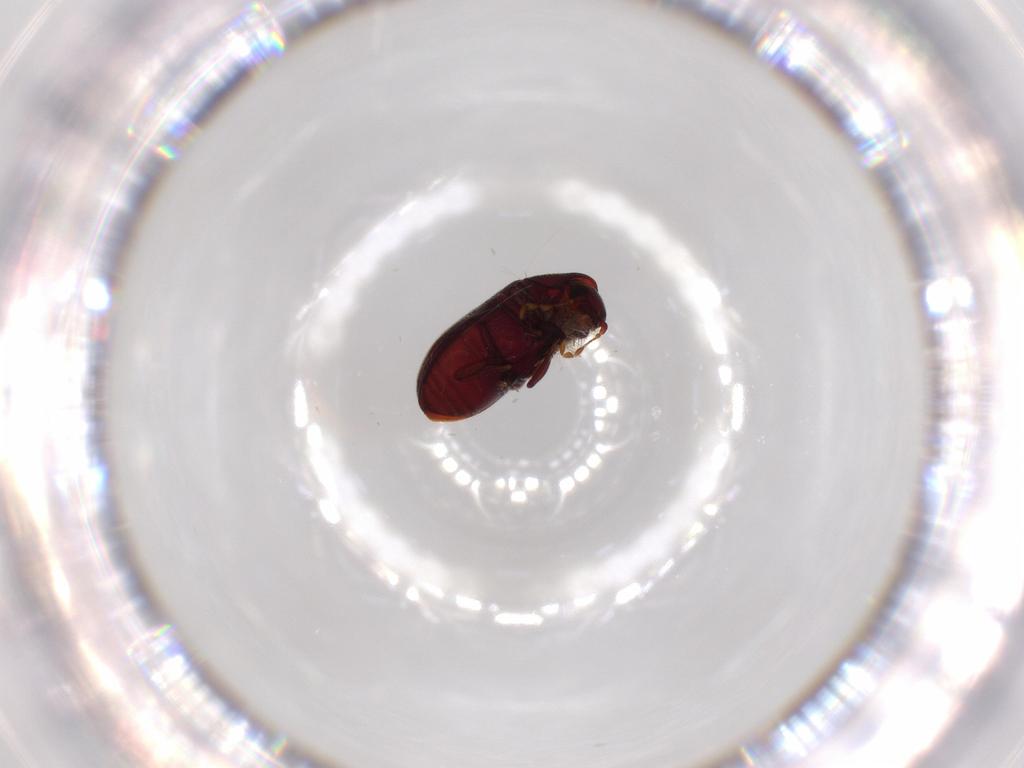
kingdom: Animalia
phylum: Arthropoda
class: Insecta
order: Coleoptera
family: Ptinidae
